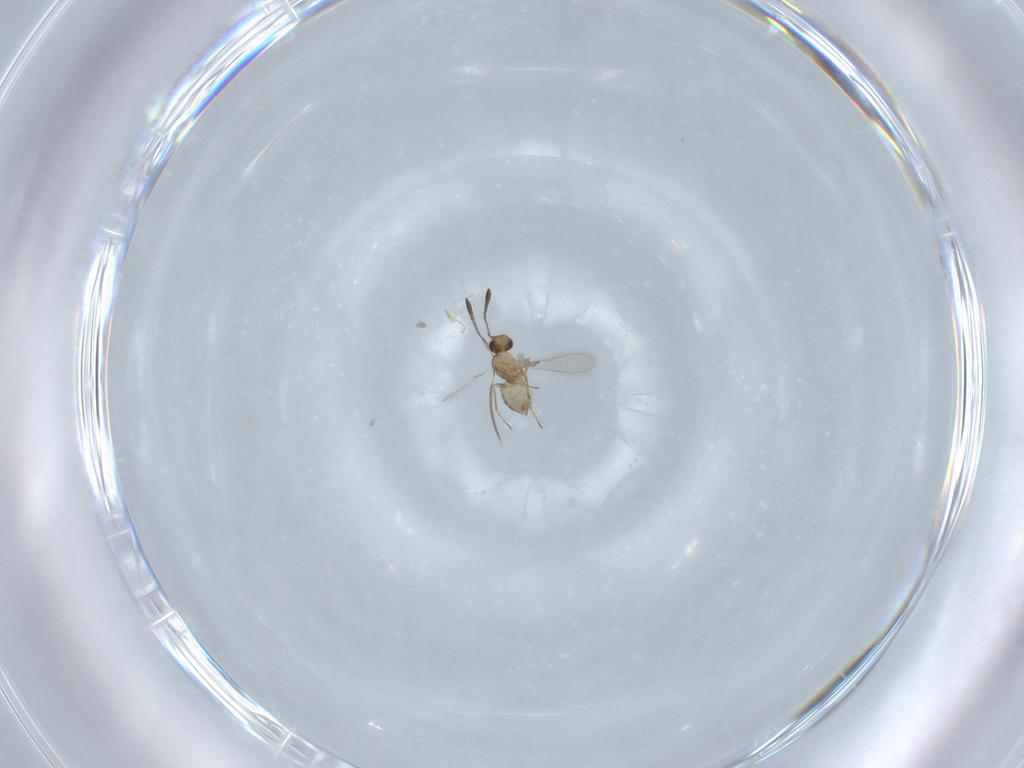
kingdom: Animalia
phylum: Arthropoda
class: Insecta
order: Hymenoptera
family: Mymaridae
